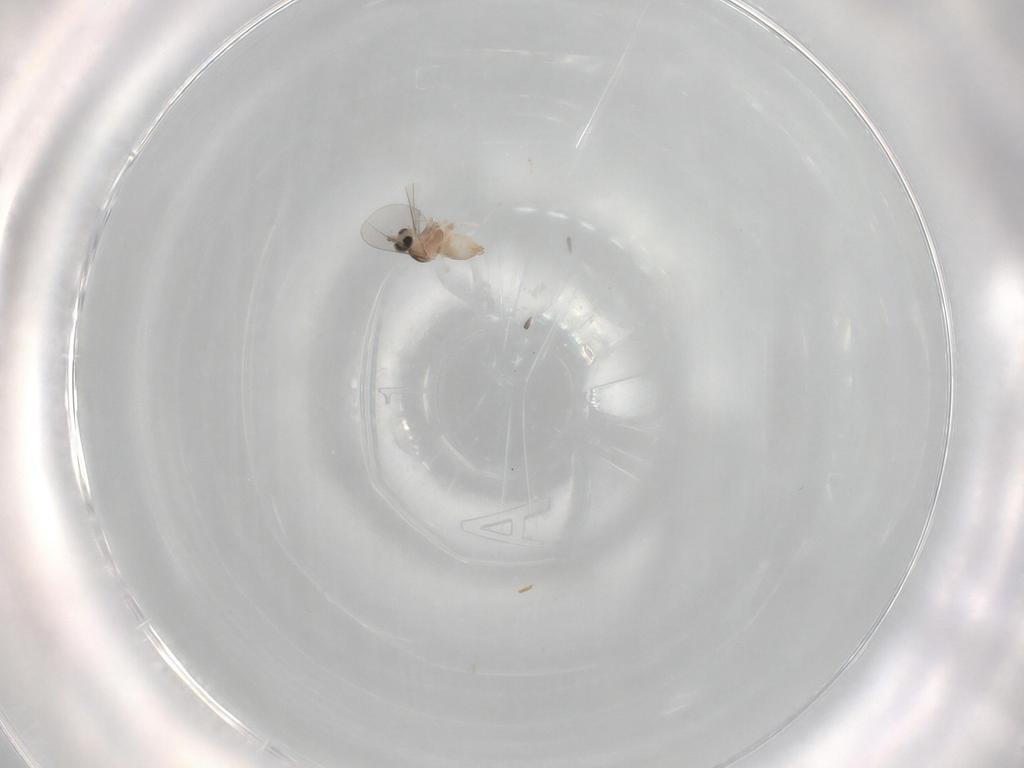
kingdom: Animalia
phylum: Arthropoda
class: Insecta
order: Diptera
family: Cecidomyiidae
